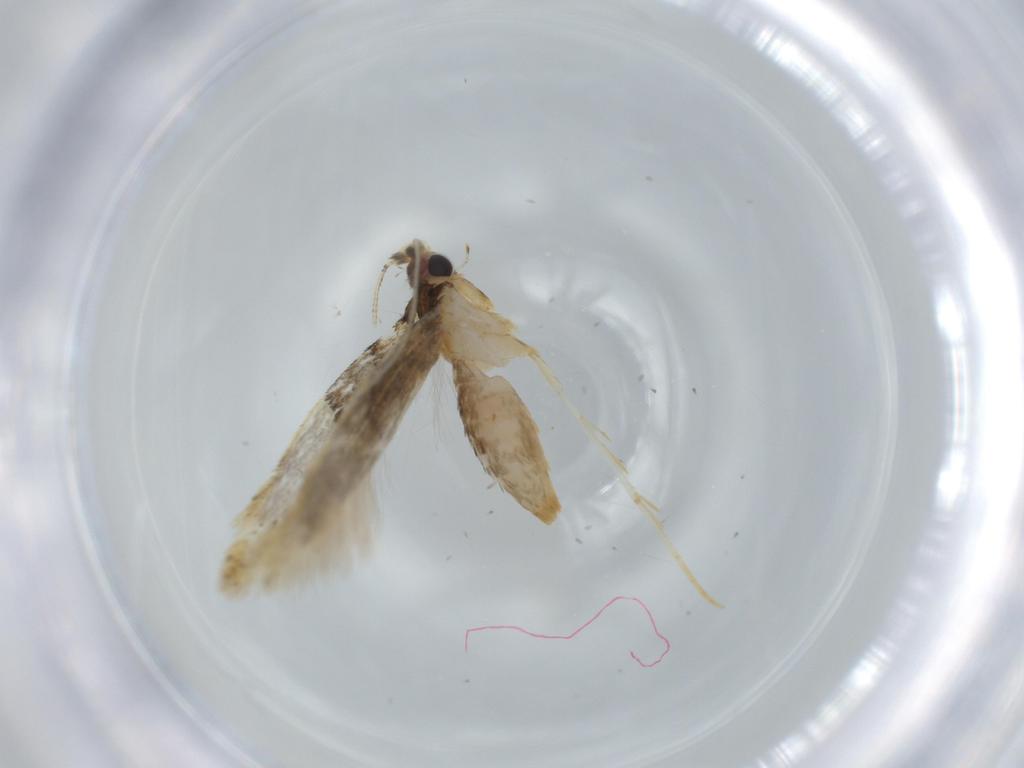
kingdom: Animalia
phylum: Arthropoda
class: Insecta
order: Lepidoptera
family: Tineidae
